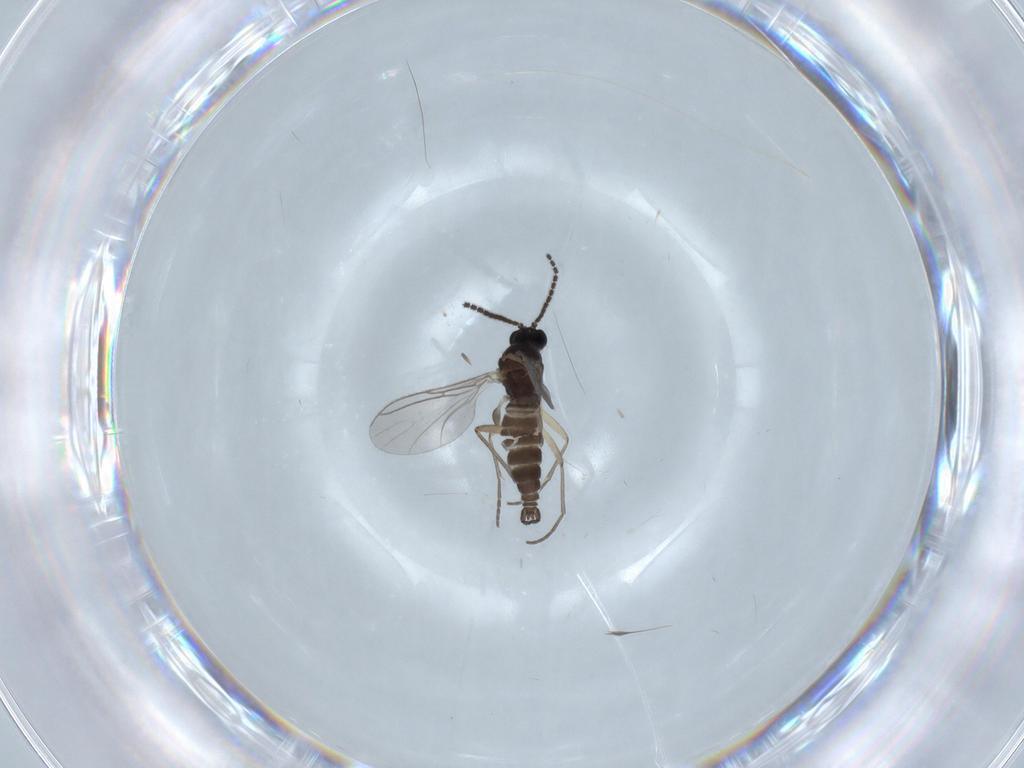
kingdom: Animalia
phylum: Arthropoda
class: Insecta
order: Diptera
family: Sciaridae
